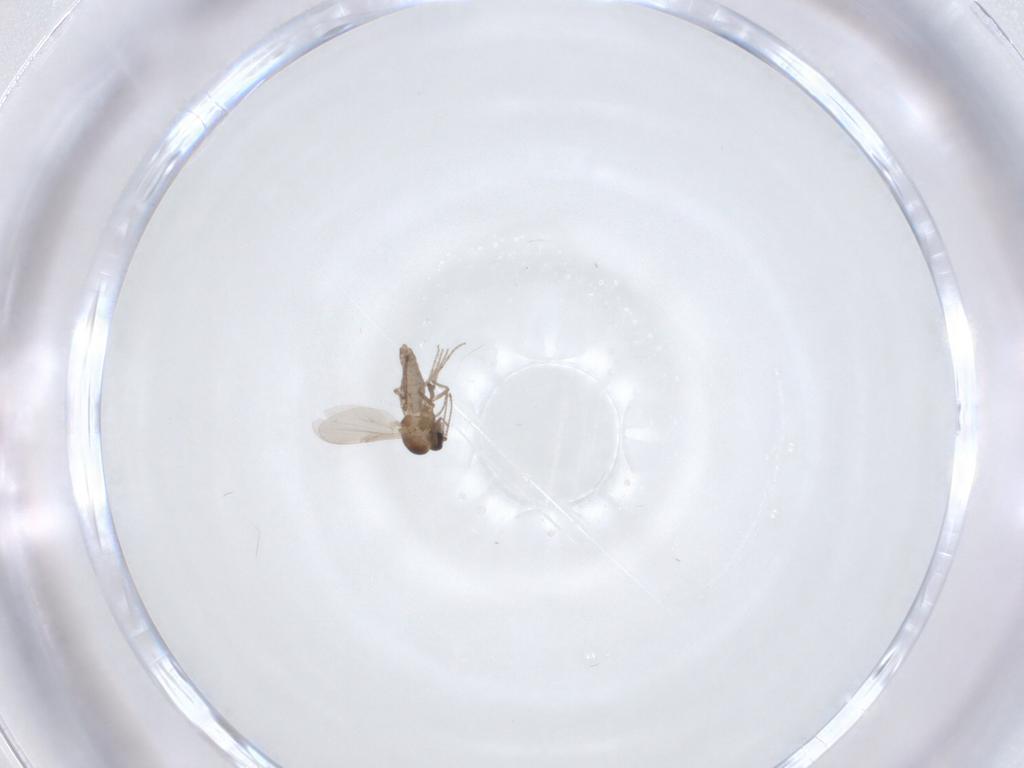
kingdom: Animalia
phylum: Arthropoda
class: Insecta
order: Diptera
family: Ceratopogonidae
